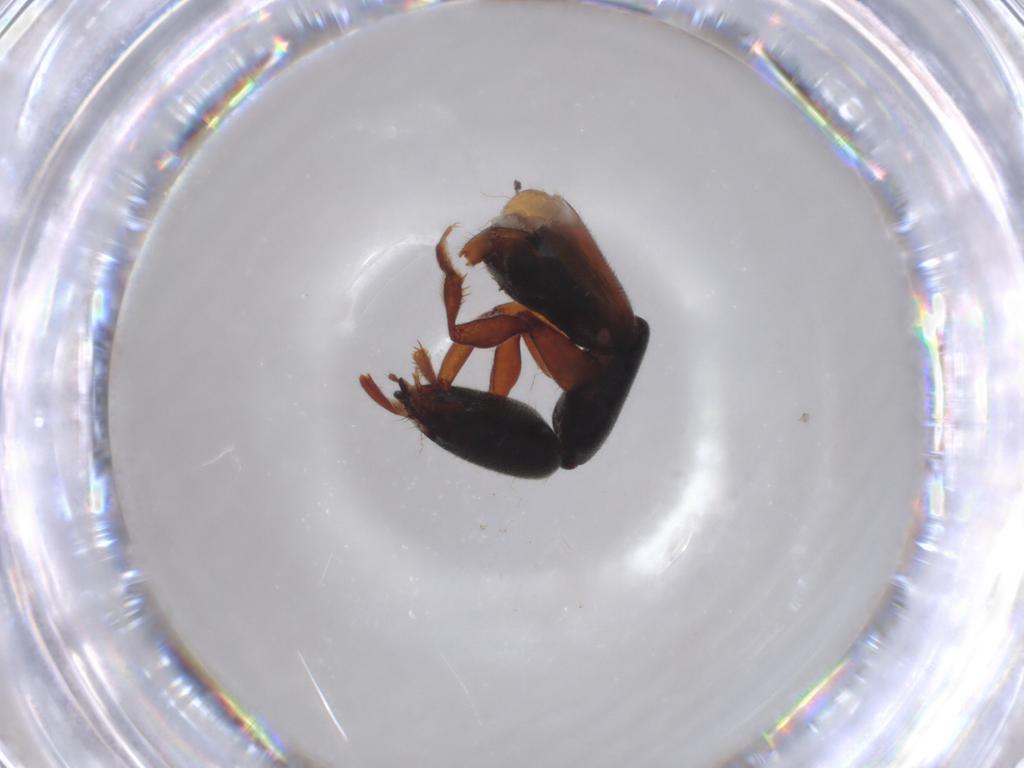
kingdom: Animalia
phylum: Arthropoda
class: Insecta
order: Coleoptera
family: Staphylinidae
